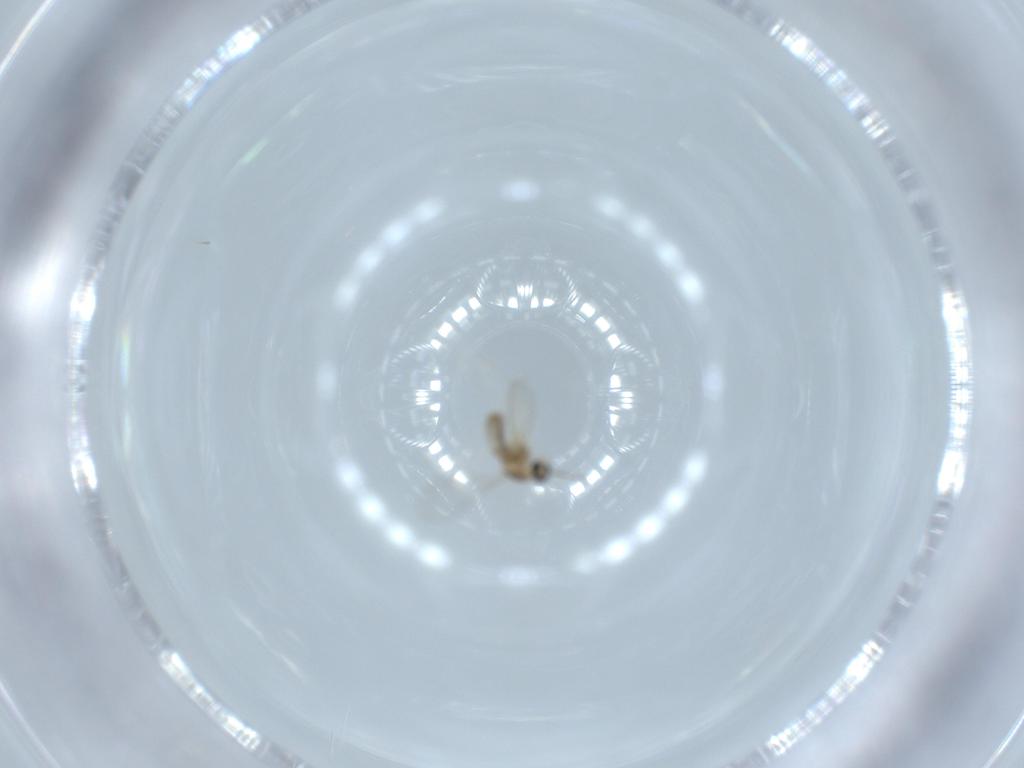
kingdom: Animalia
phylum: Arthropoda
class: Insecta
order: Diptera
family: Cecidomyiidae
